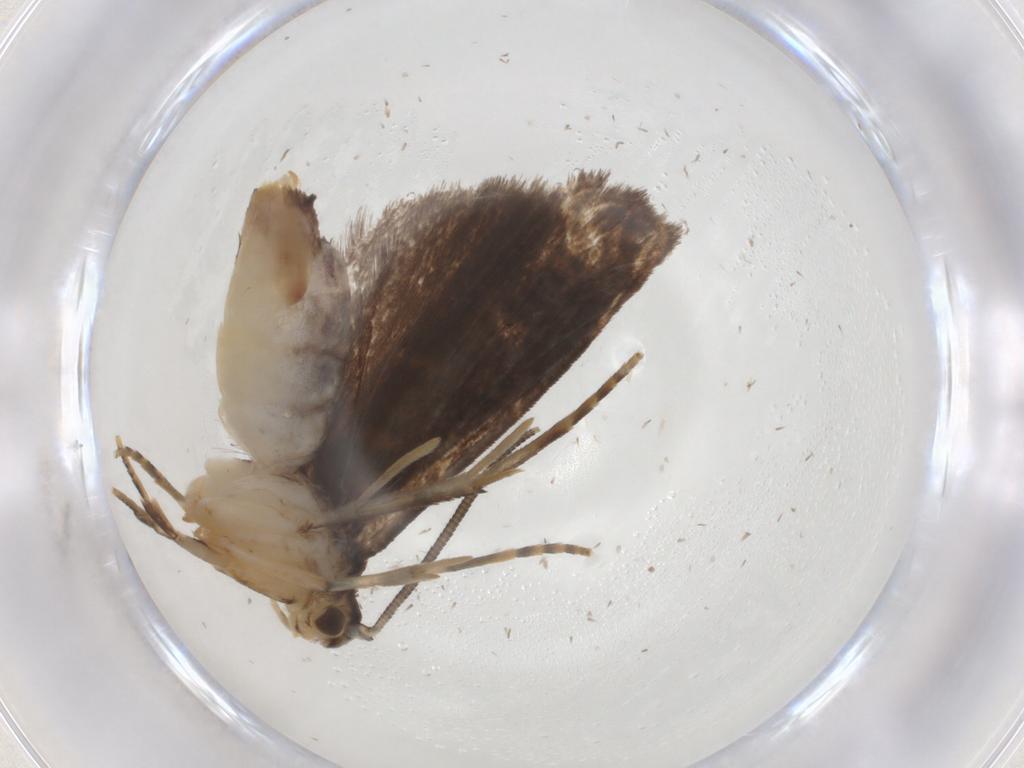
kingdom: Animalia
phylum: Arthropoda
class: Insecta
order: Lepidoptera
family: Dryadaulidae
